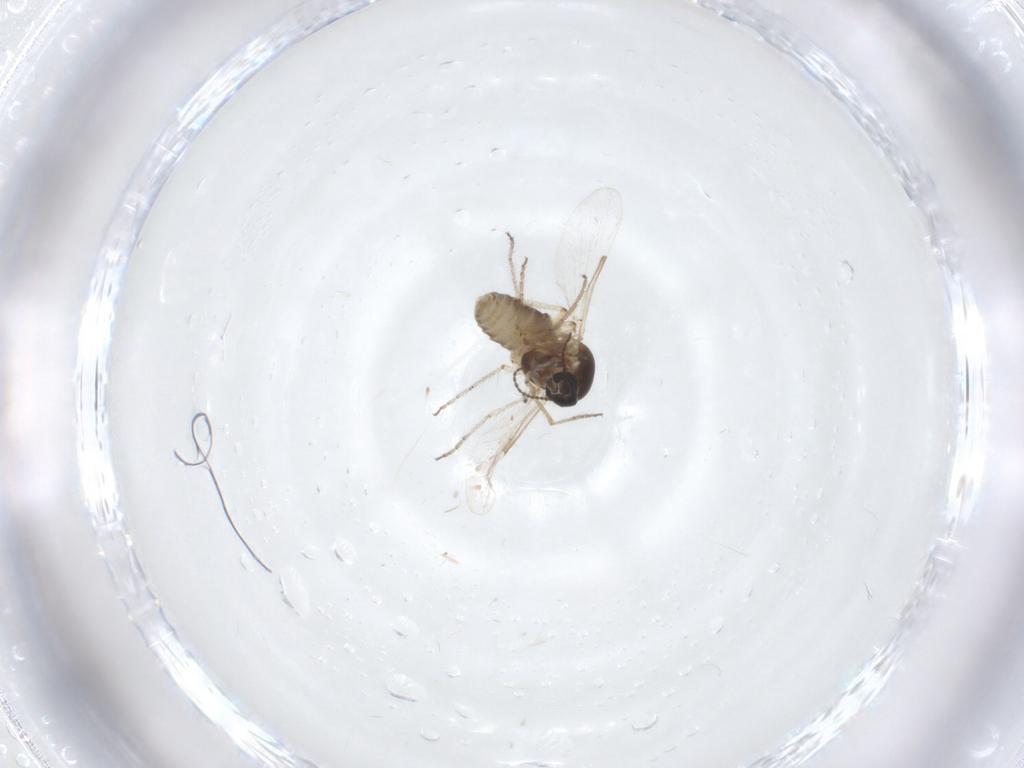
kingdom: Animalia
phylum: Arthropoda
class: Insecta
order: Diptera
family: Ceratopogonidae
